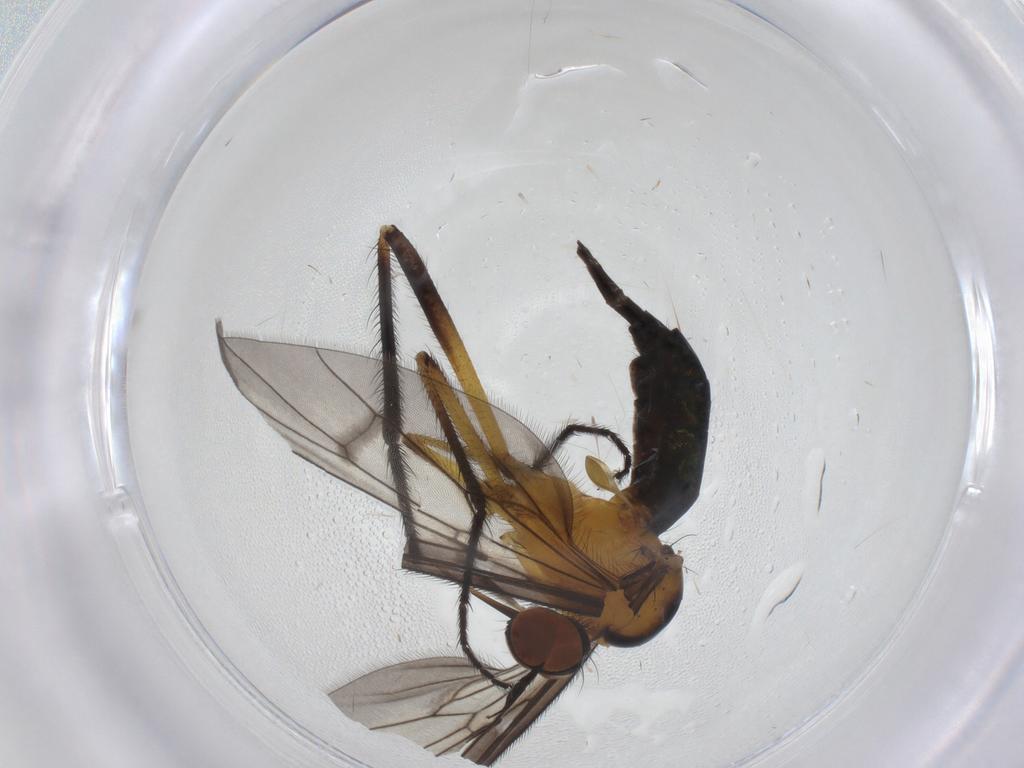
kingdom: Animalia
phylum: Arthropoda
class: Insecta
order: Diptera
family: Empididae
